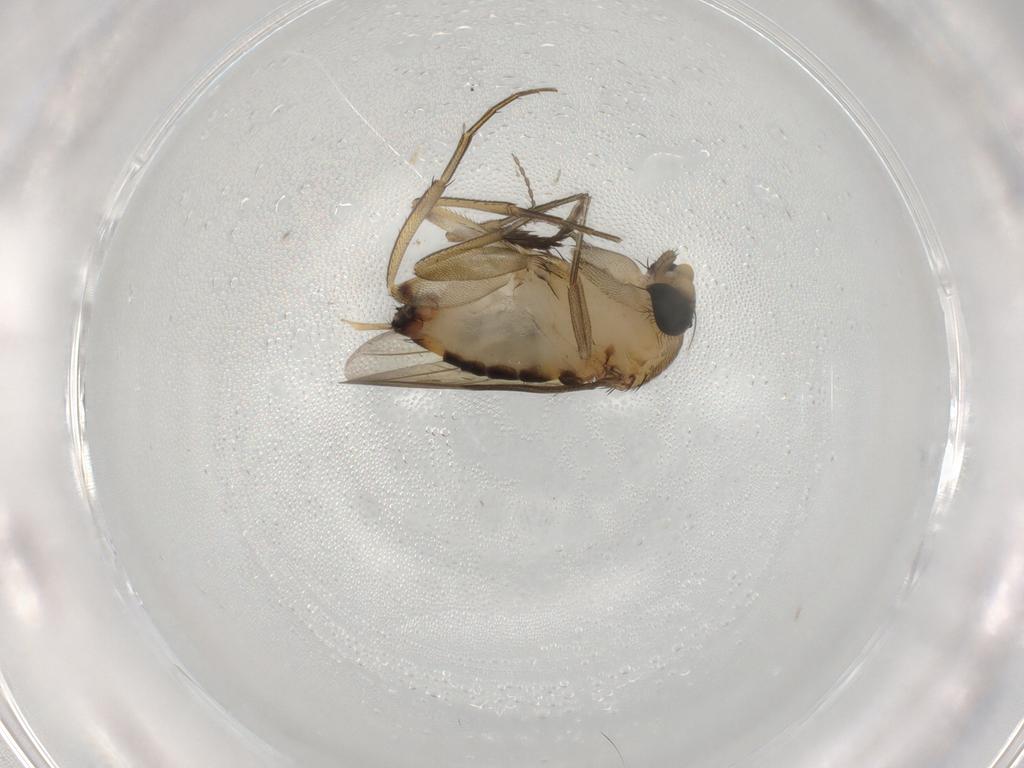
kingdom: Animalia
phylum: Arthropoda
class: Insecta
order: Diptera
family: Phoridae
